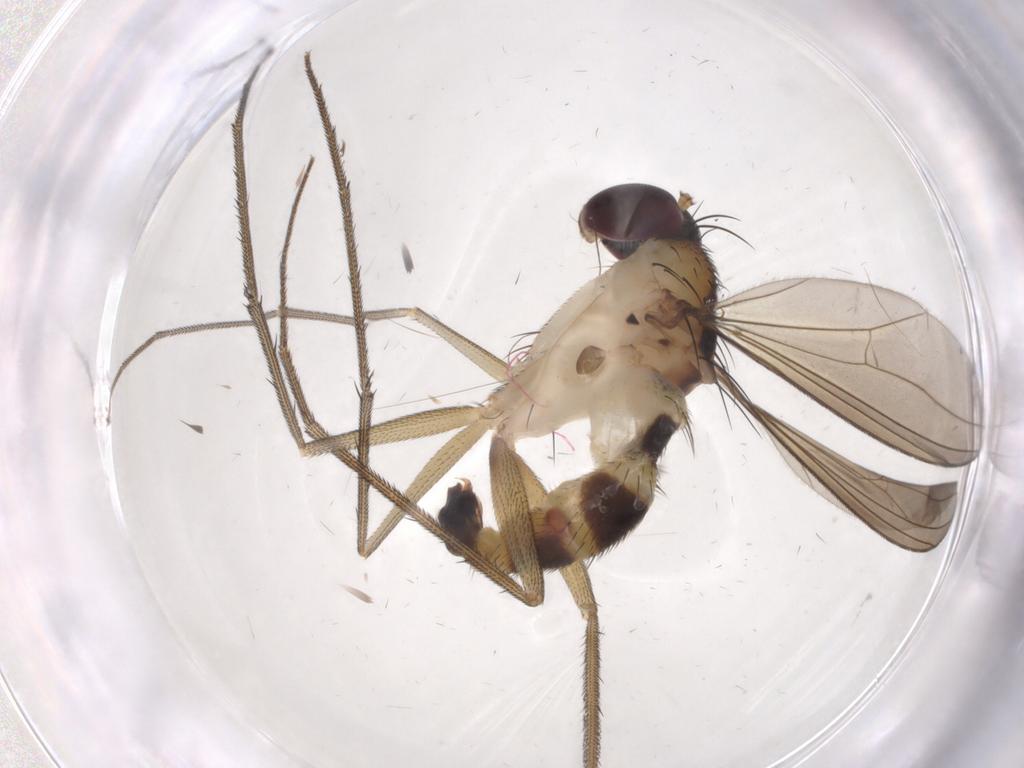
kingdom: Animalia
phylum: Arthropoda
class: Insecta
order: Diptera
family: Dolichopodidae
